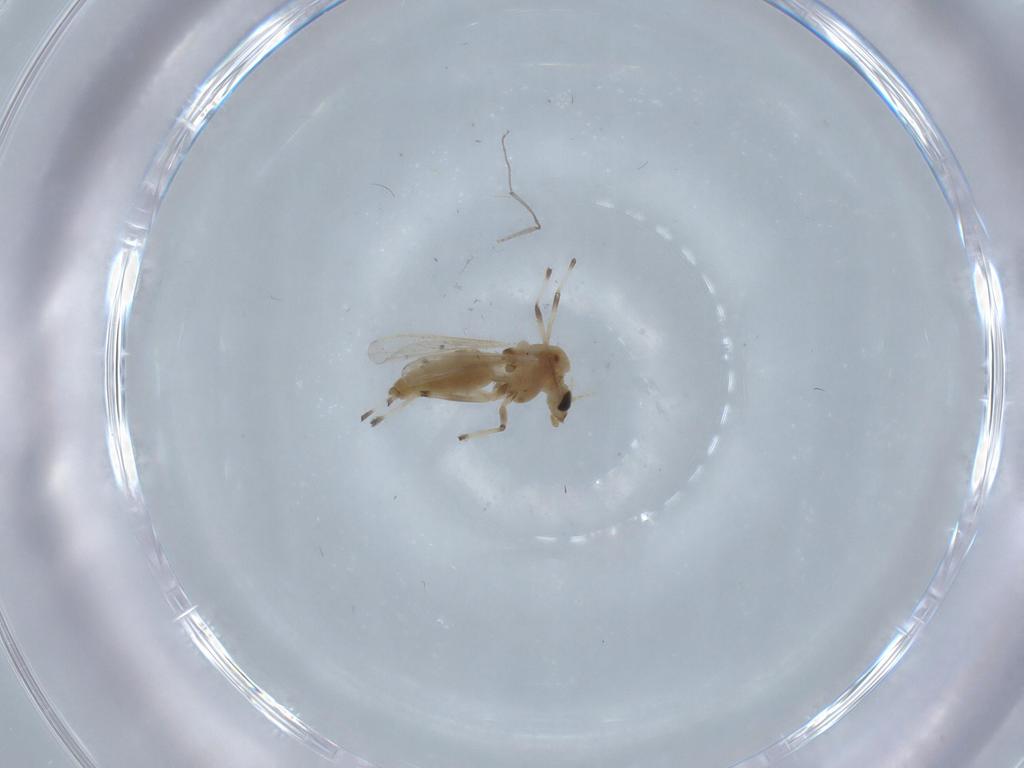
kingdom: Animalia
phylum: Arthropoda
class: Insecta
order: Diptera
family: Chironomidae
